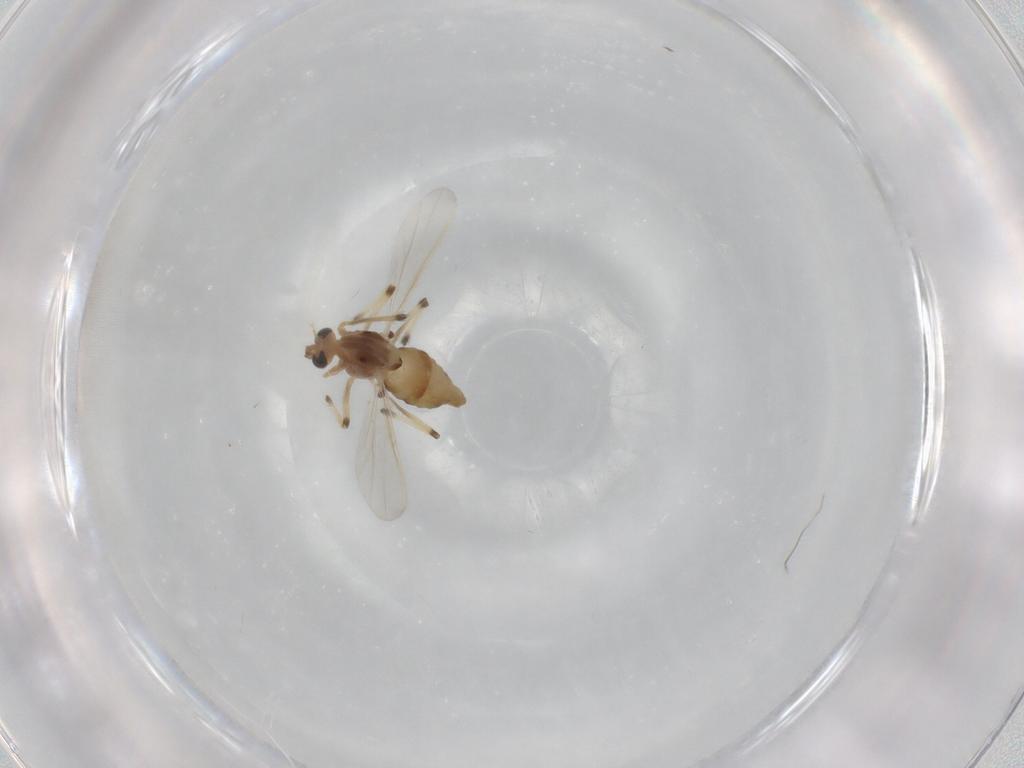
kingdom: Animalia
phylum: Arthropoda
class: Insecta
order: Diptera
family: Chironomidae
